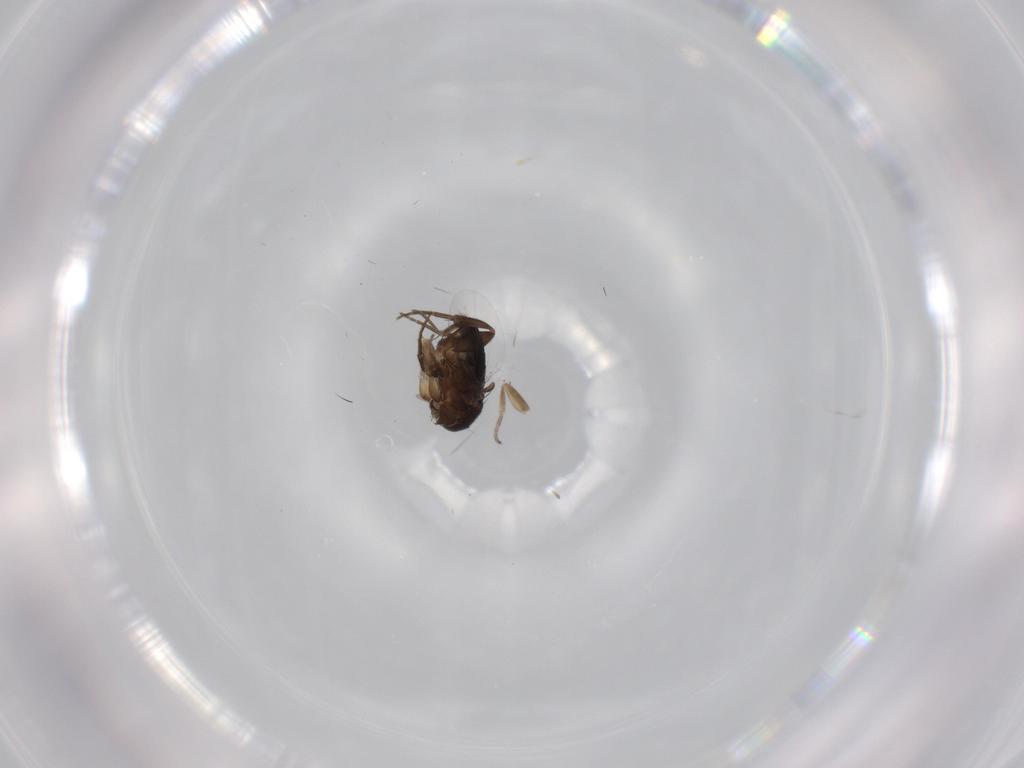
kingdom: Animalia
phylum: Arthropoda
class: Insecta
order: Diptera
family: Phoridae
